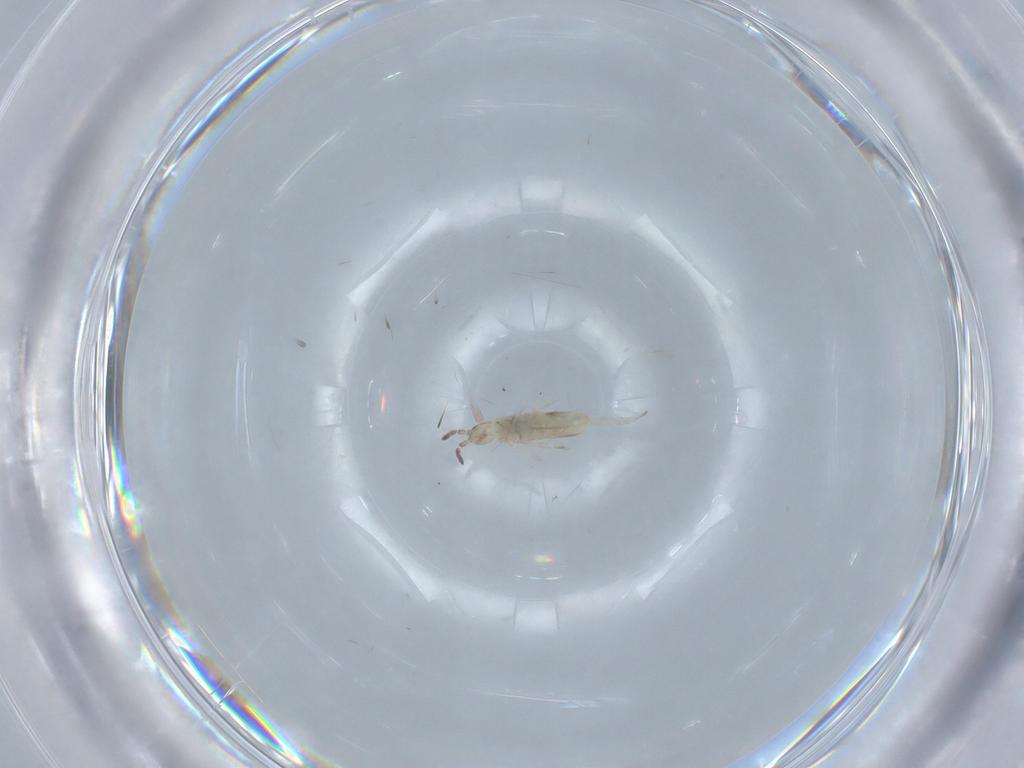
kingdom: Animalia
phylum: Arthropoda
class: Collembola
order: Entomobryomorpha
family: Entomobryidae
